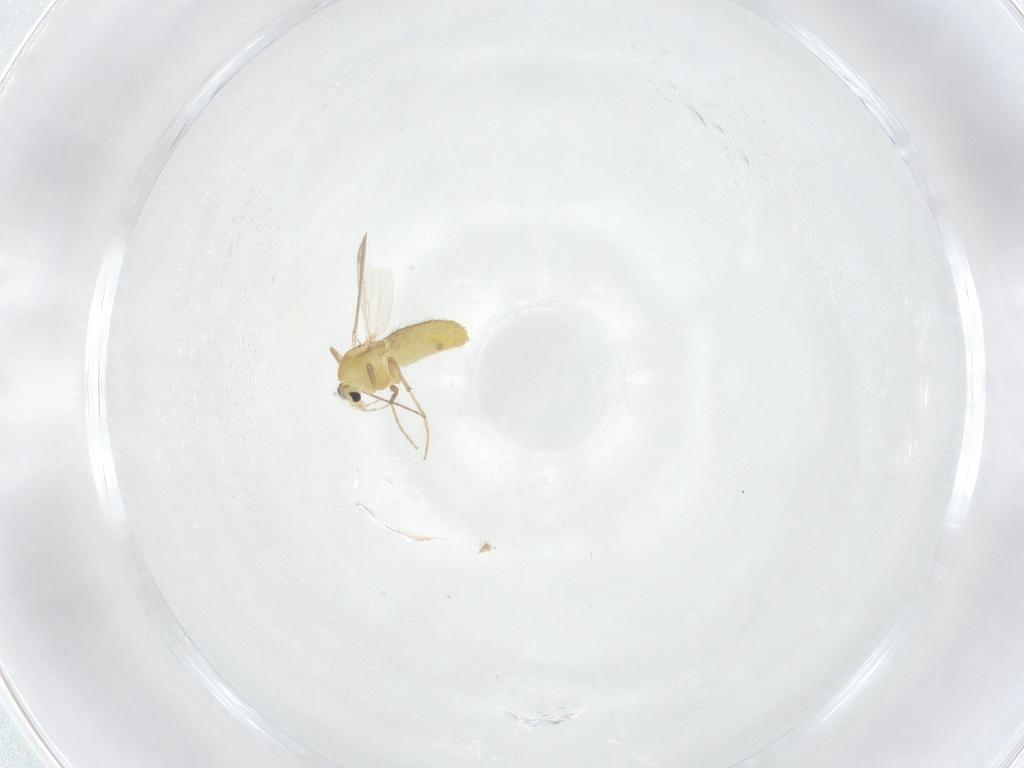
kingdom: Animalia
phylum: Arthropoda
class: Insecta
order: Diptera
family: Chironomidae
